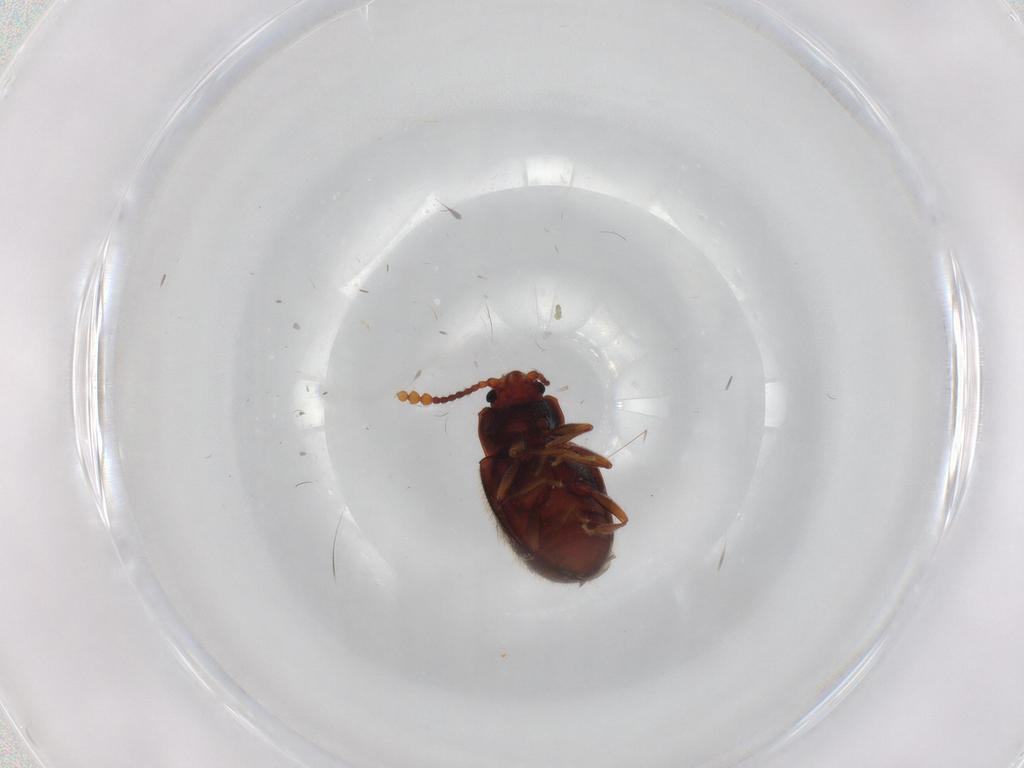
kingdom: Animalia
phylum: Arthropoda
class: Insecta
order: Coleoptera
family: Erotylidae
